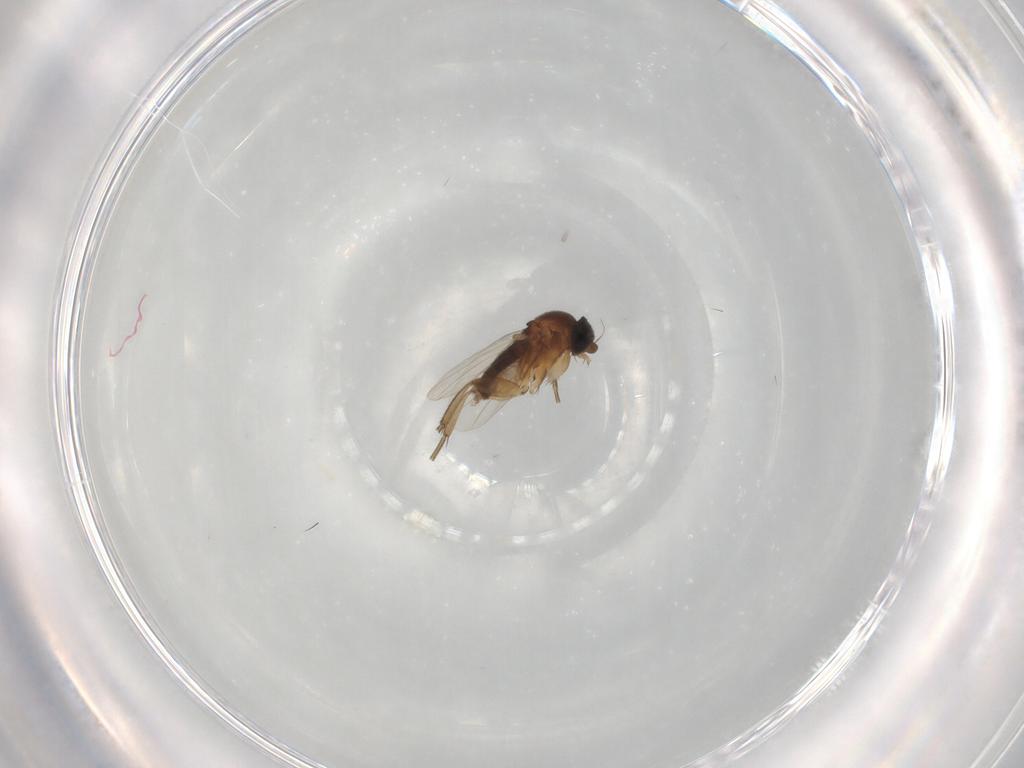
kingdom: Animalia
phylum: Arthropoda
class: Insecta
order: Diptera
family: Phoridae
